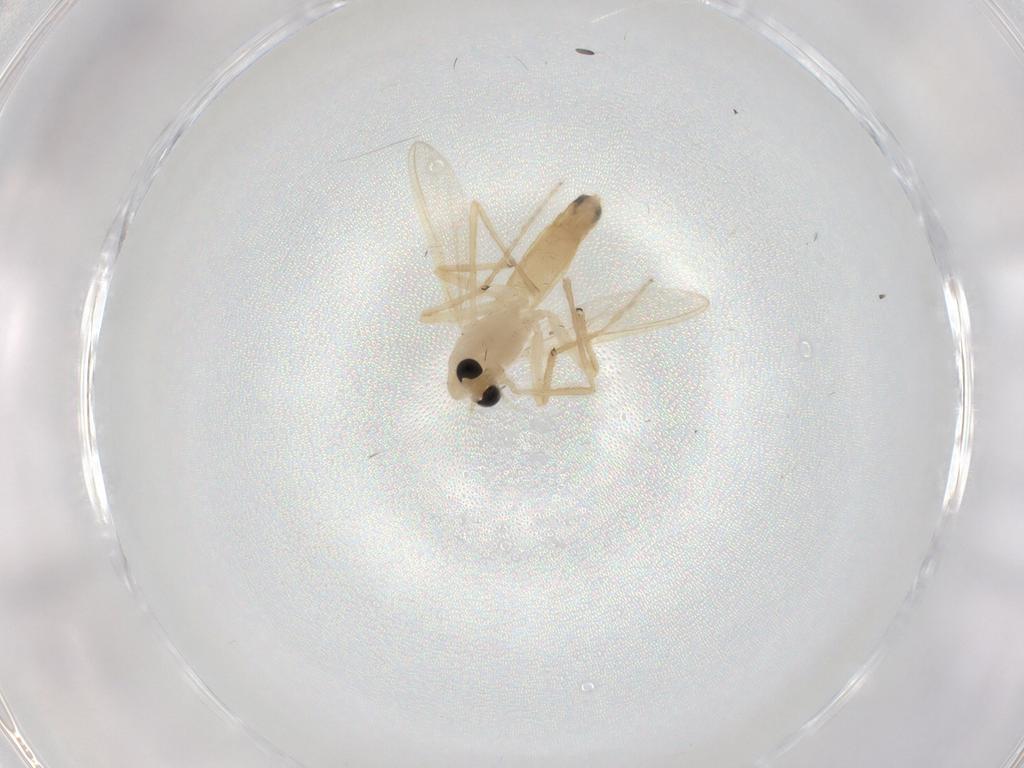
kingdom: Animalia
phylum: Arthropoda
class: Insecta
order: Diptera
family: Chironomidae
